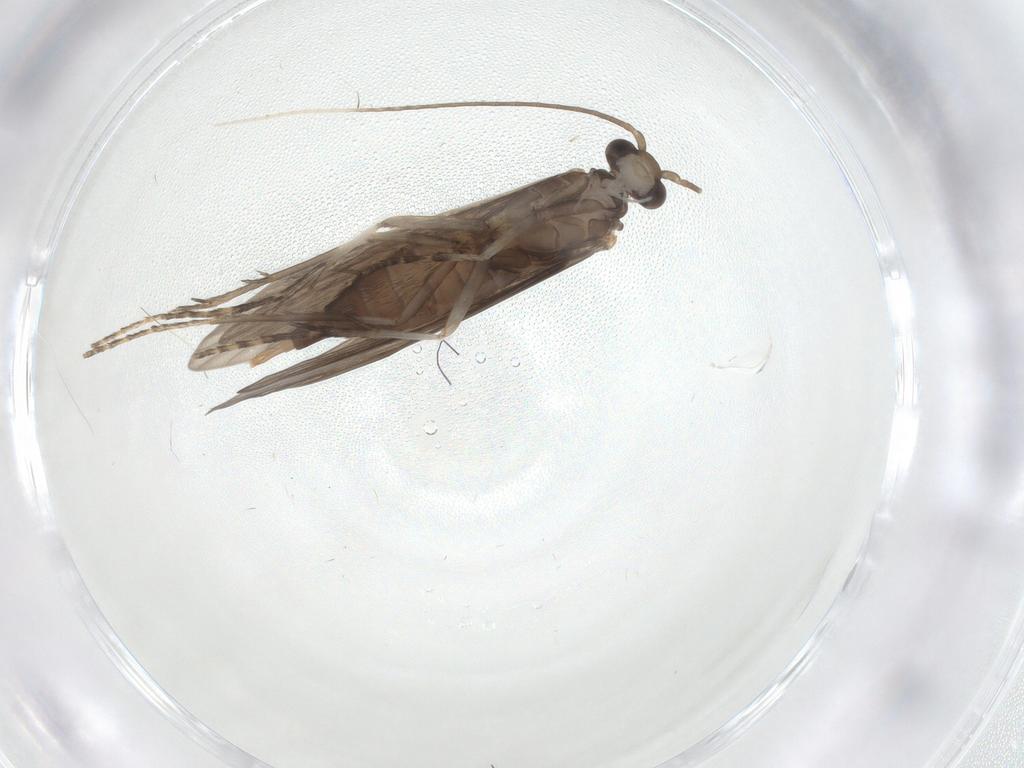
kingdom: Animalia
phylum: Arthropoda
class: Insecta
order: Trichoptera
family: Xiphocentronidae
